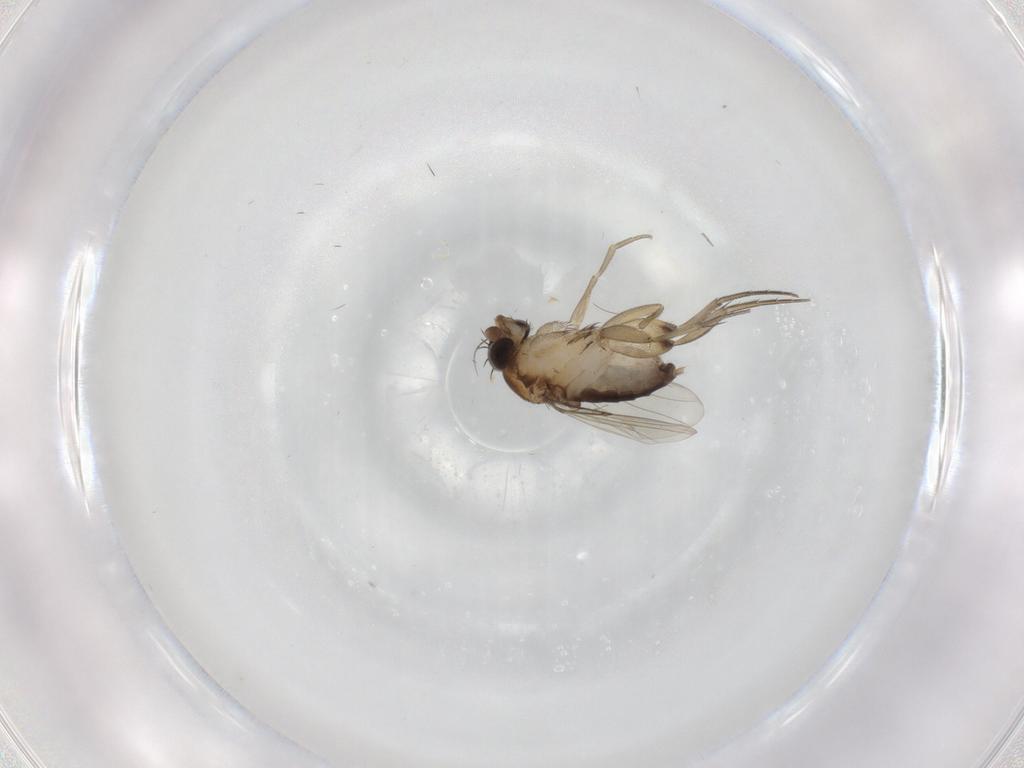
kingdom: Animalia
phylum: Arthropoda
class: Insecta
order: Diptera
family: Phoridae
